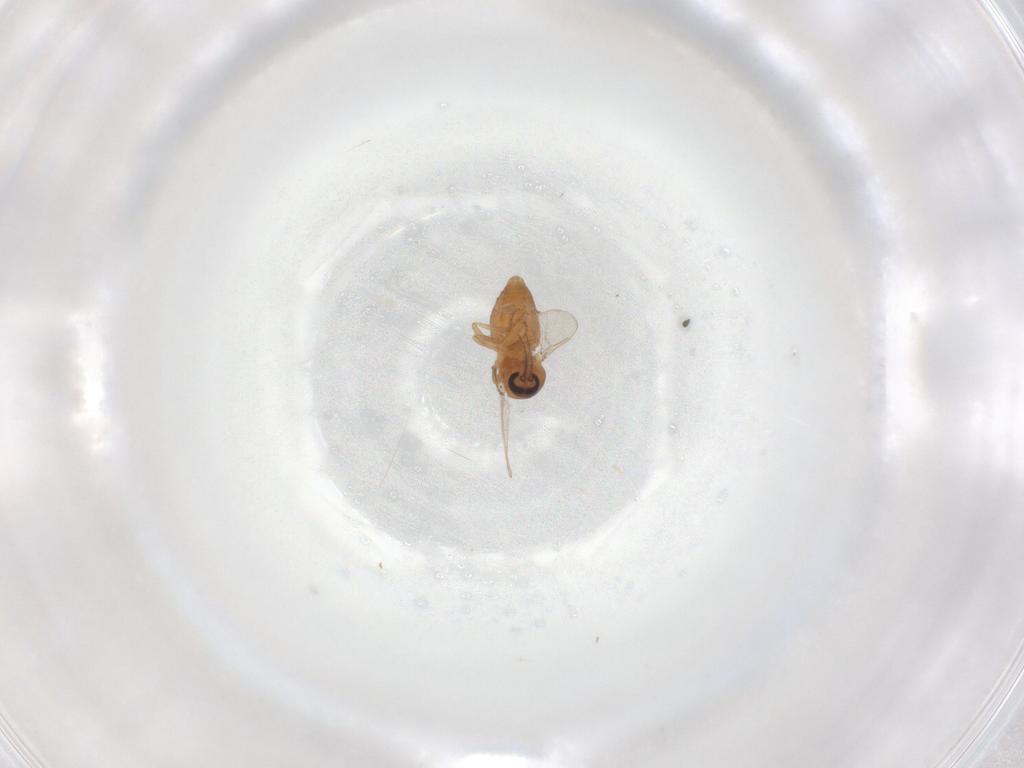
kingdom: Animalia
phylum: Arthropoda
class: Insecta
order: Diptera
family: Ceratopogonidae
